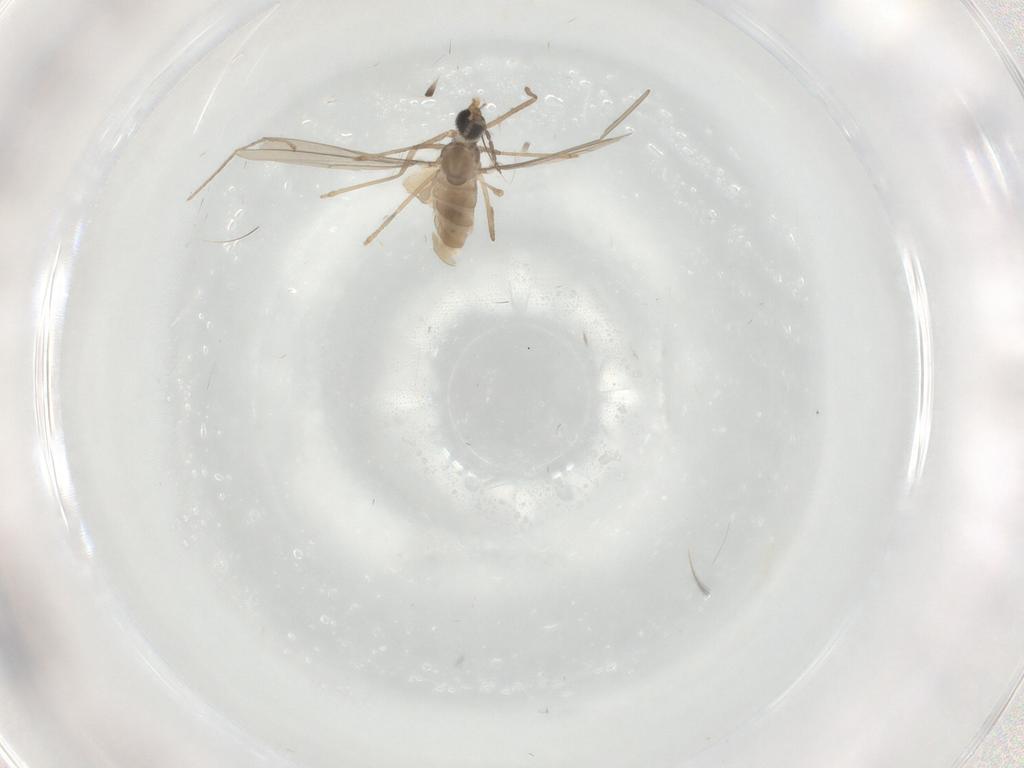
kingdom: Animalia
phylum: Arthropoda
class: Insecta
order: Diptera
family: Cecidomyiidae
